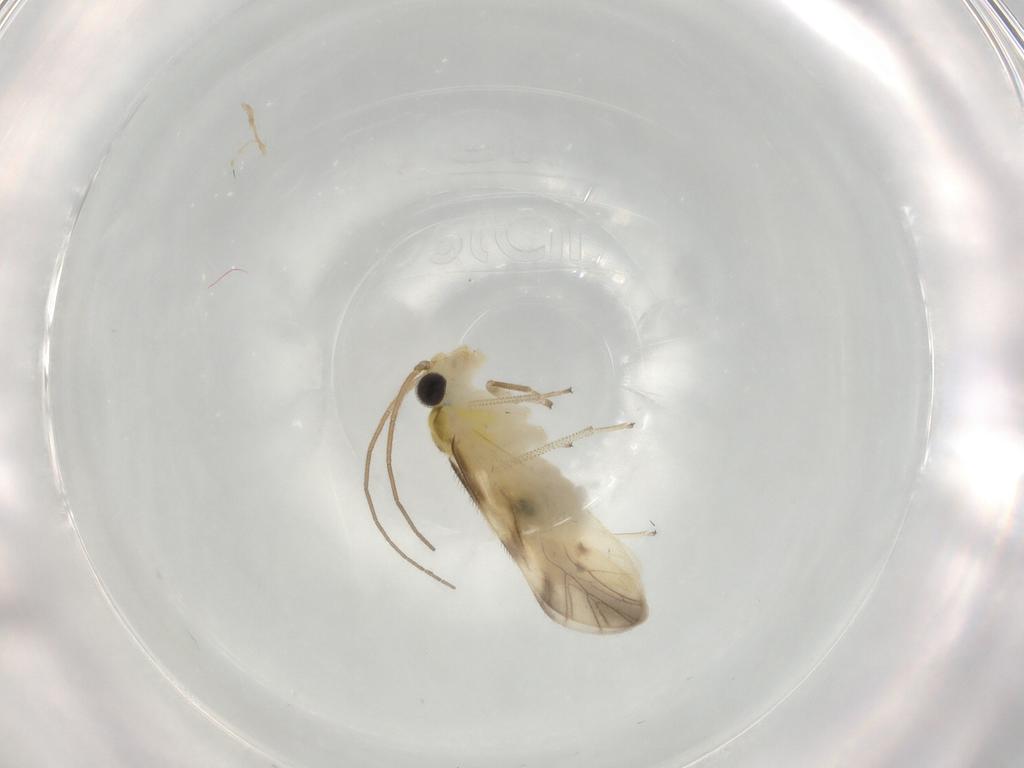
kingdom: Animalia
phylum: Arthropoda
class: Insecta
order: Psocodea
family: Caeciliusidae
